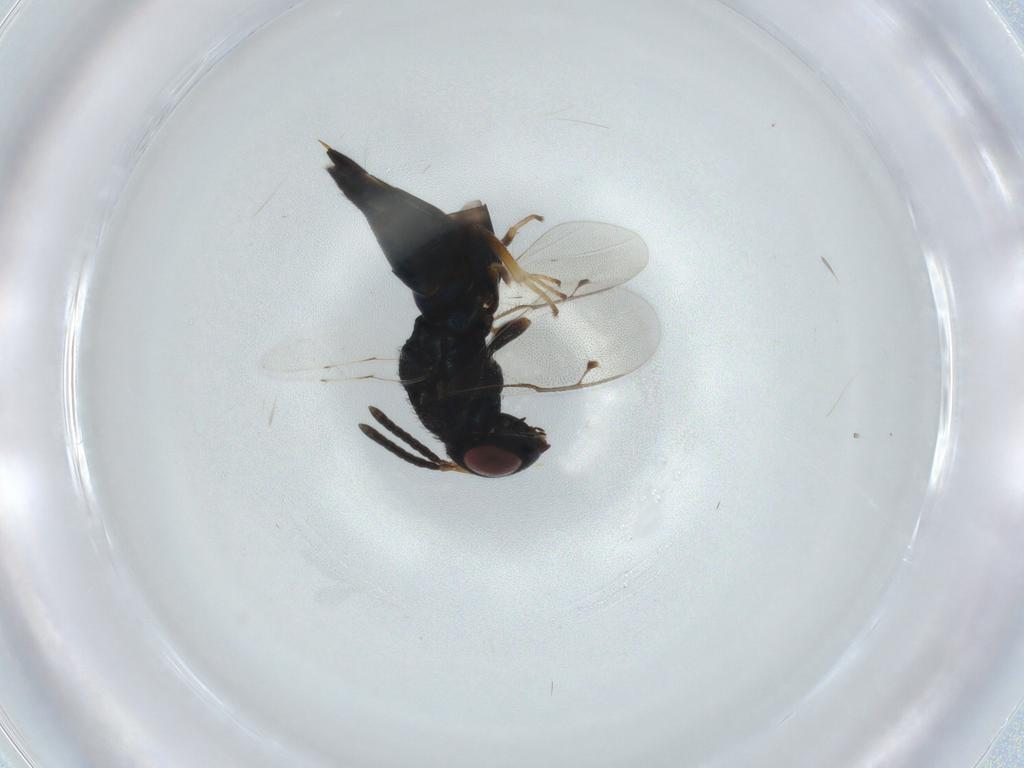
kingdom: Animalia
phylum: Arthropoda
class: Insecta
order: Hymenoptera
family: Pteromalidae
